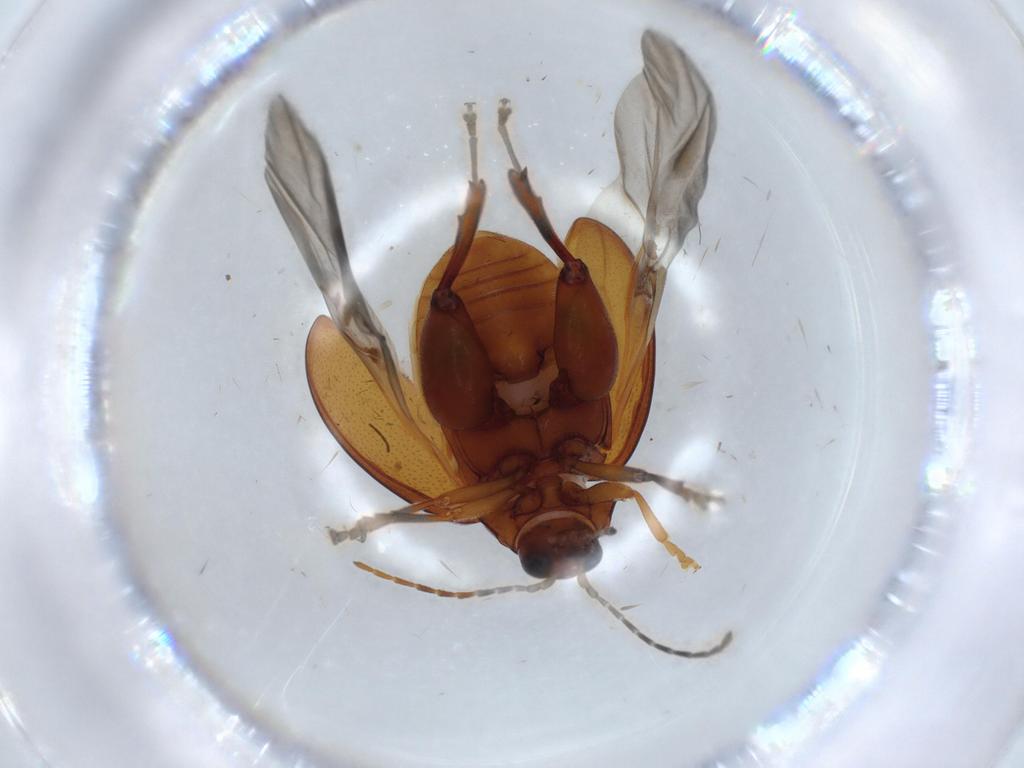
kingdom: Animalia
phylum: Arthropoda
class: Insecta
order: Coleoptera
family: Chrysomelidae
